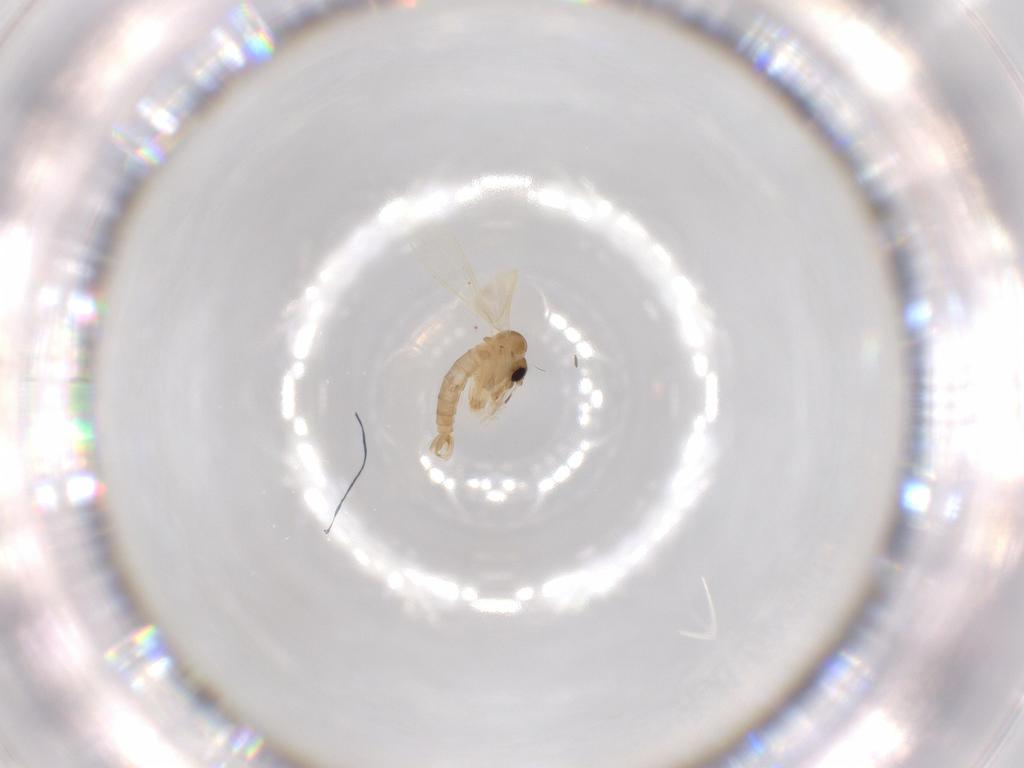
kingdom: Animalia
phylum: Arthropoda
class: Insecta
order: Diptera
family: Psychodidae
